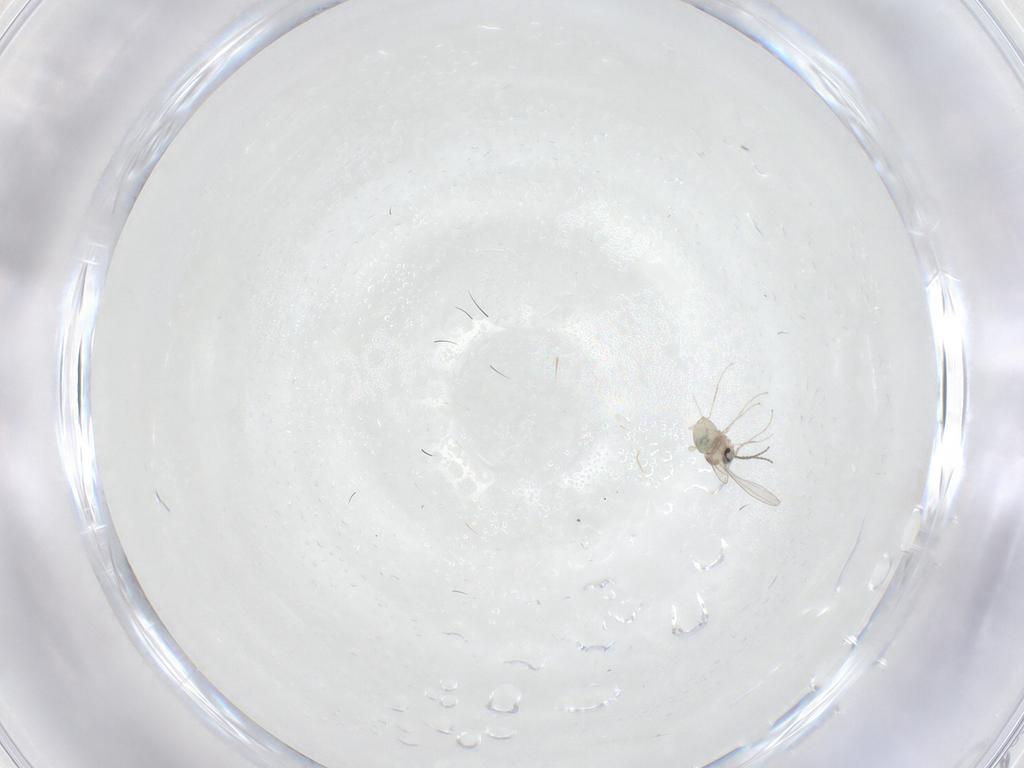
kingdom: Animalia
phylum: Arthropoda
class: Insecta
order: Diptera
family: Cecidomyiidae
